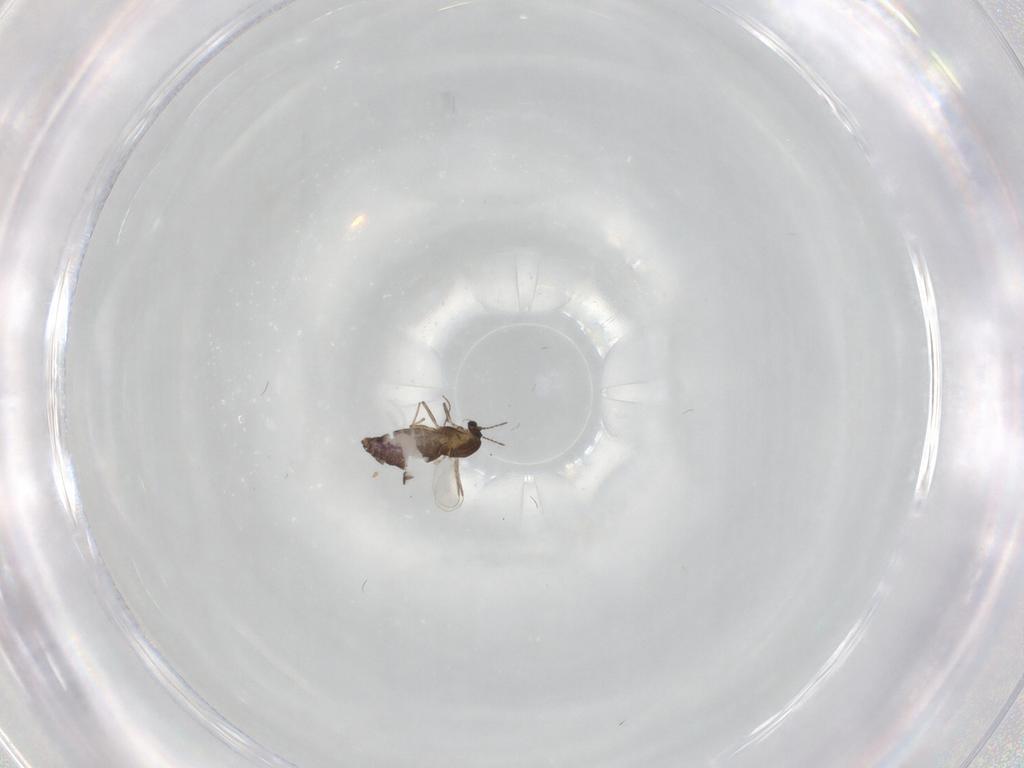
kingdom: Animalia
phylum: Arthropoda
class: Insecta
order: Diptera
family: Chironomidae
